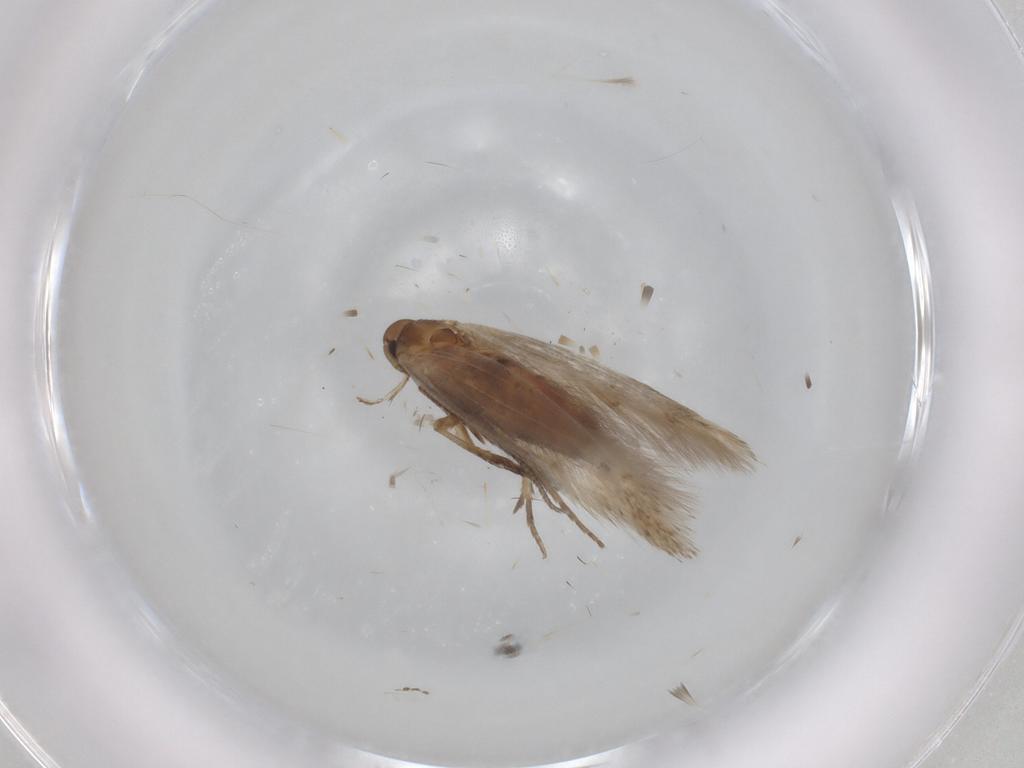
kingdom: Animalia
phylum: Arthropoda
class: Insecta
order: Lepidoptera
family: Cosmopterigidae
